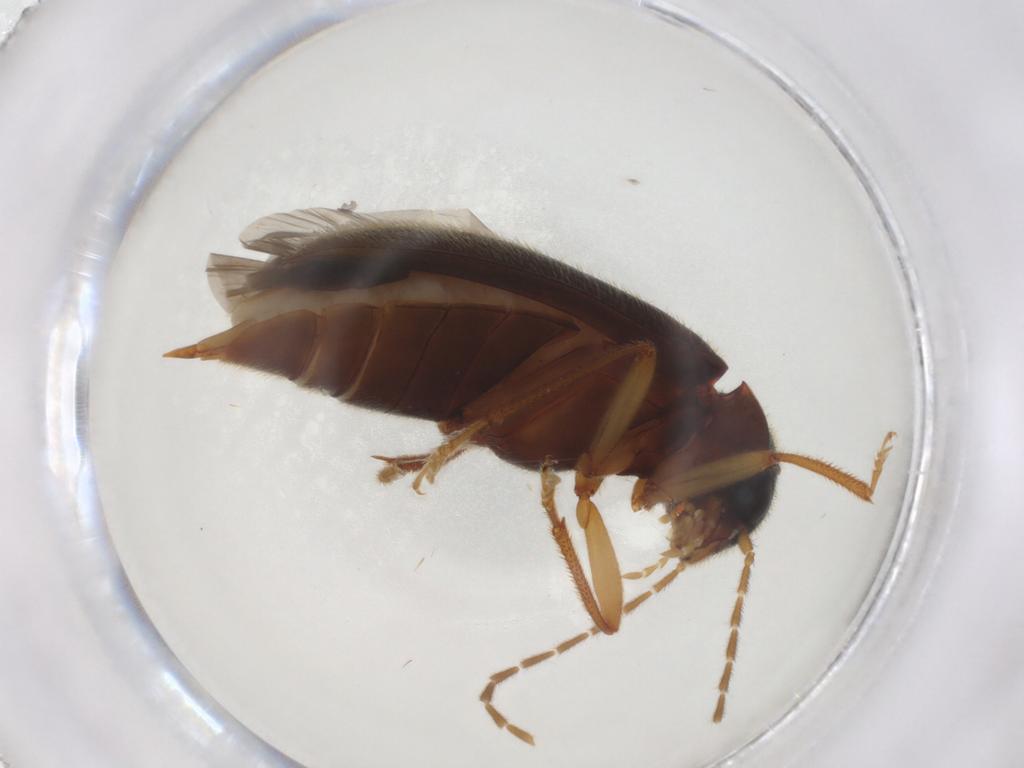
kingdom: Animalia
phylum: Arthropoda
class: Insecta
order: Coleoptera
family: Ptilodactylidae
